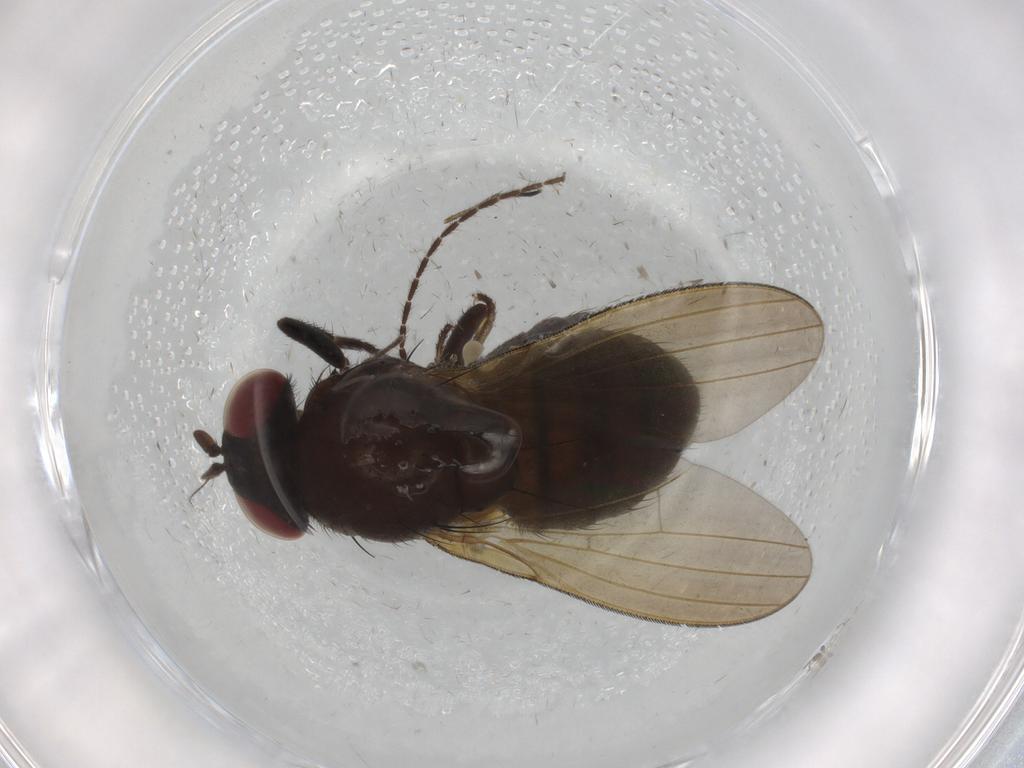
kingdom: Animalia
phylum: Arthropoda
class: Insecta
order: Diptera
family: Lauxaniidae
